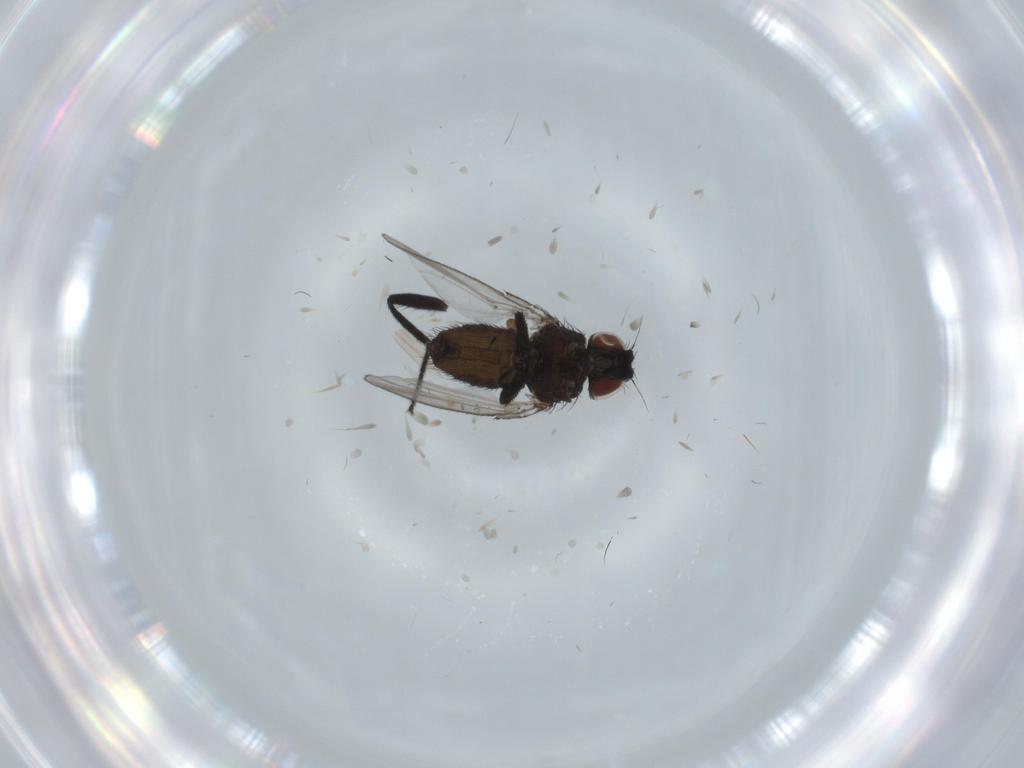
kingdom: Animalia
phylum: Arthropoda
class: Insecta
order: Diptera
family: Milichiidae
